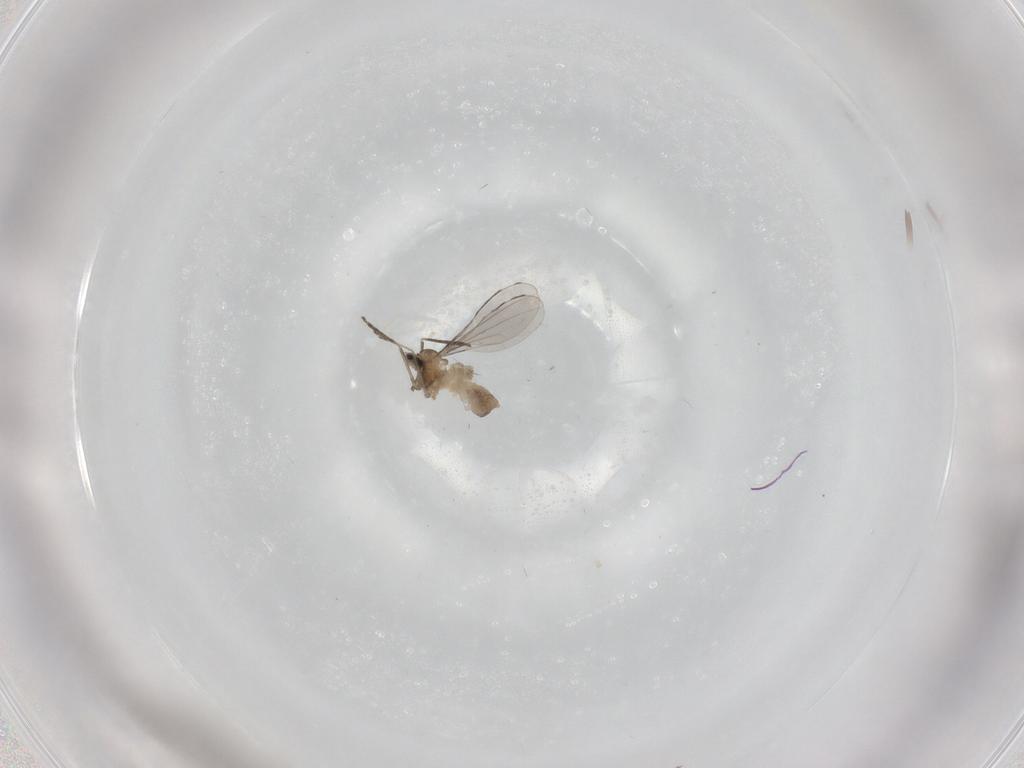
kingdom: Animalia
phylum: Arthropoda
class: Insecta
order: Diptera
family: Cecidomyiidae
